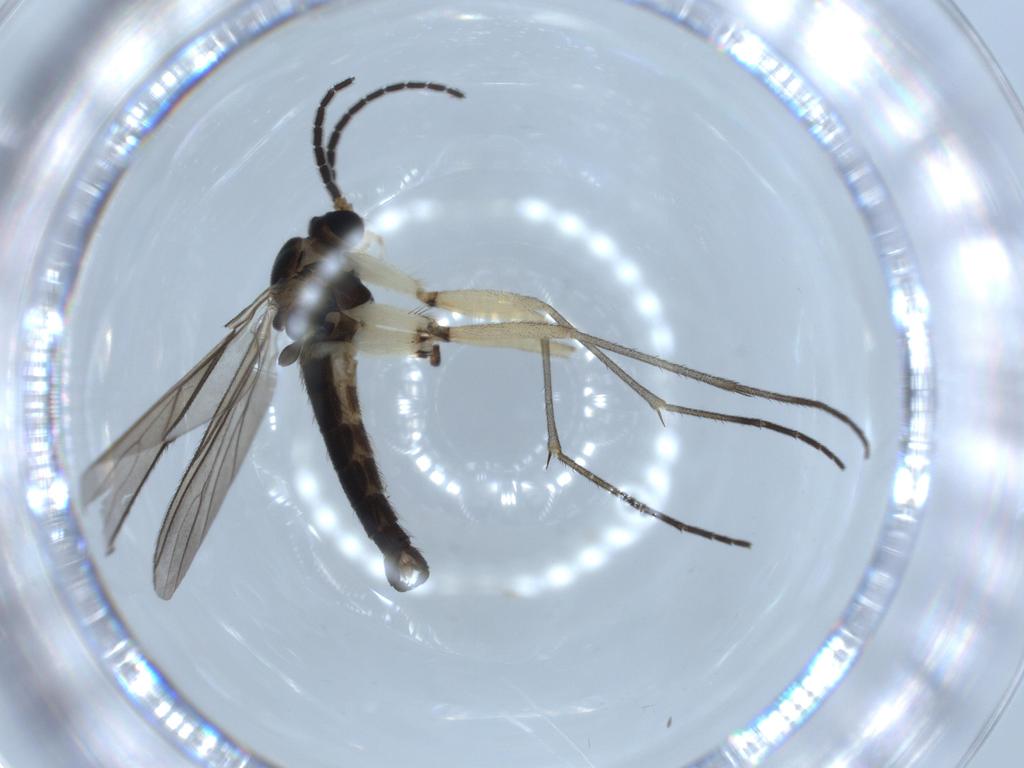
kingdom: Animalia
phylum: Arthropoda
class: Insecta
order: Diptera
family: Sciaridae
